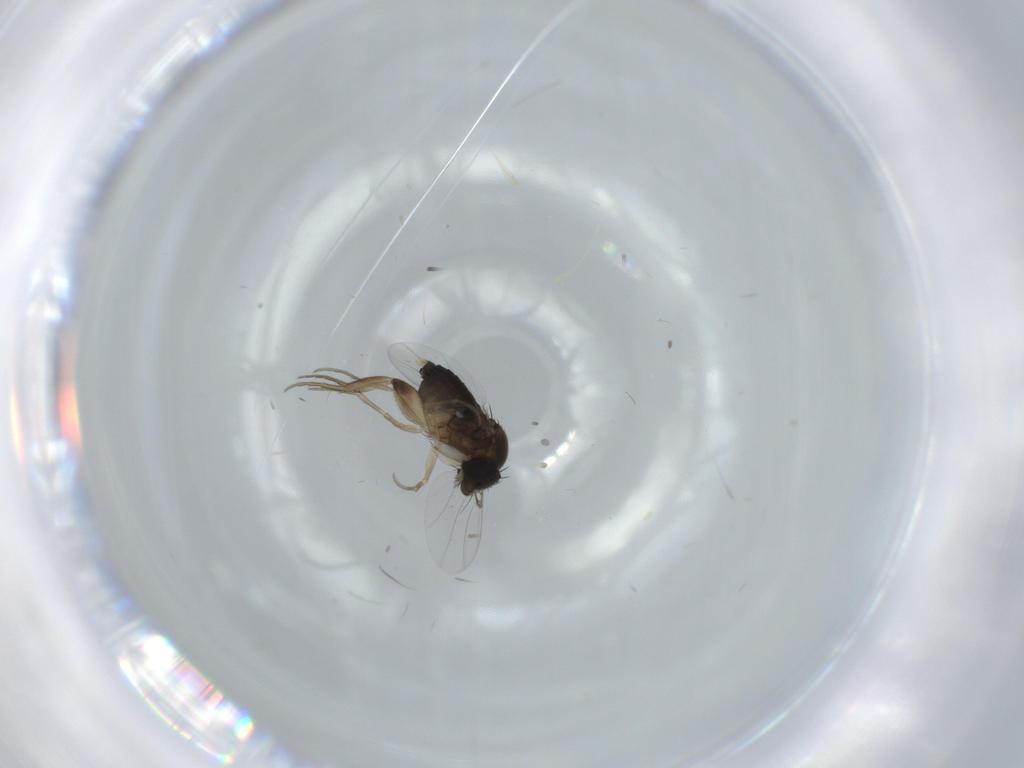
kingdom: Animalia
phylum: Arthropoda
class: Insecta
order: Diptera
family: Phoridae
